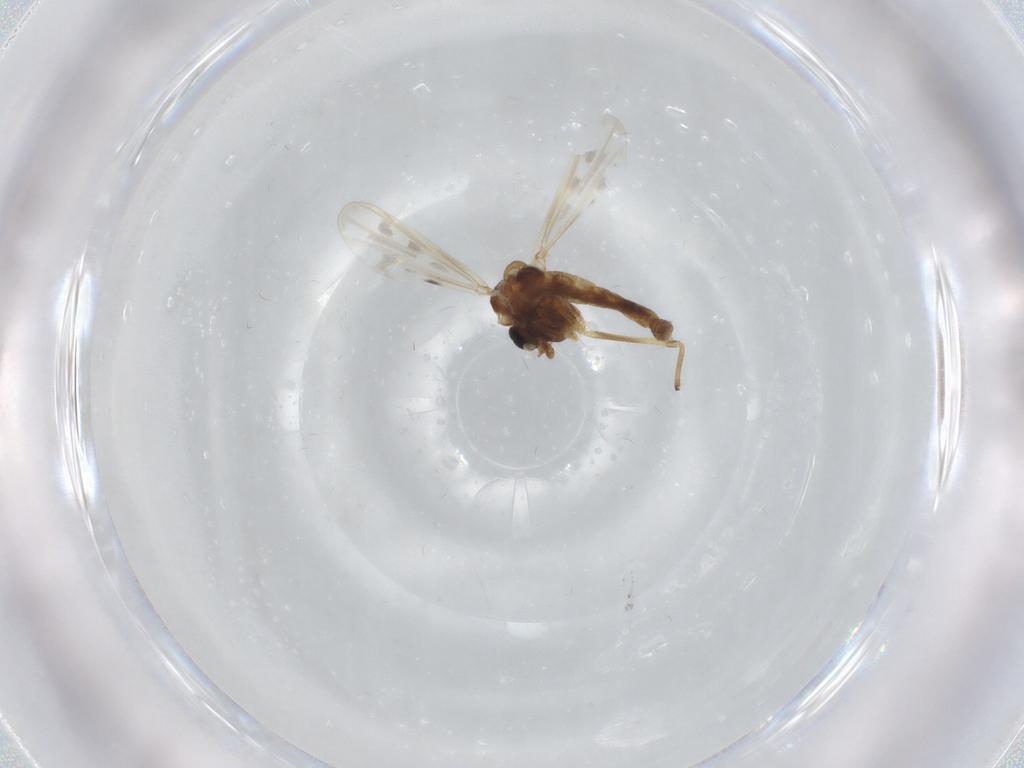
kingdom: Animalia
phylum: Arthropoda
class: Insecta
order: Diptera
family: Chironomidae
